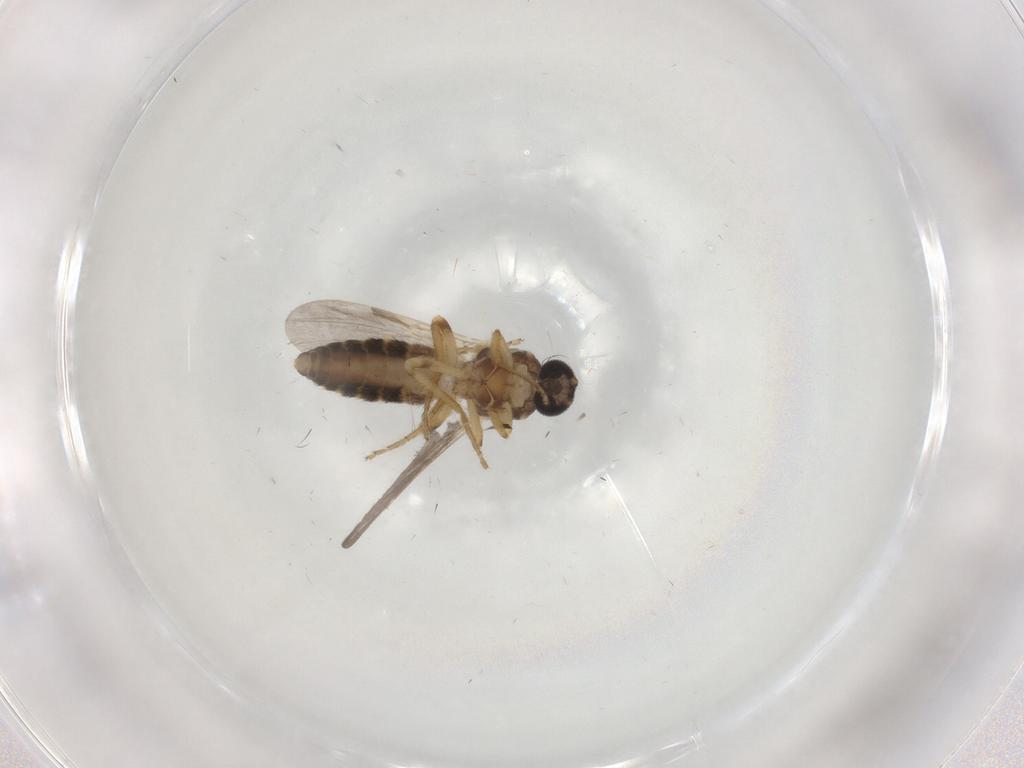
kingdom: Animalia
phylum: Arthropoda
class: Insecta
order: Diptera
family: Ceratopogonidae
